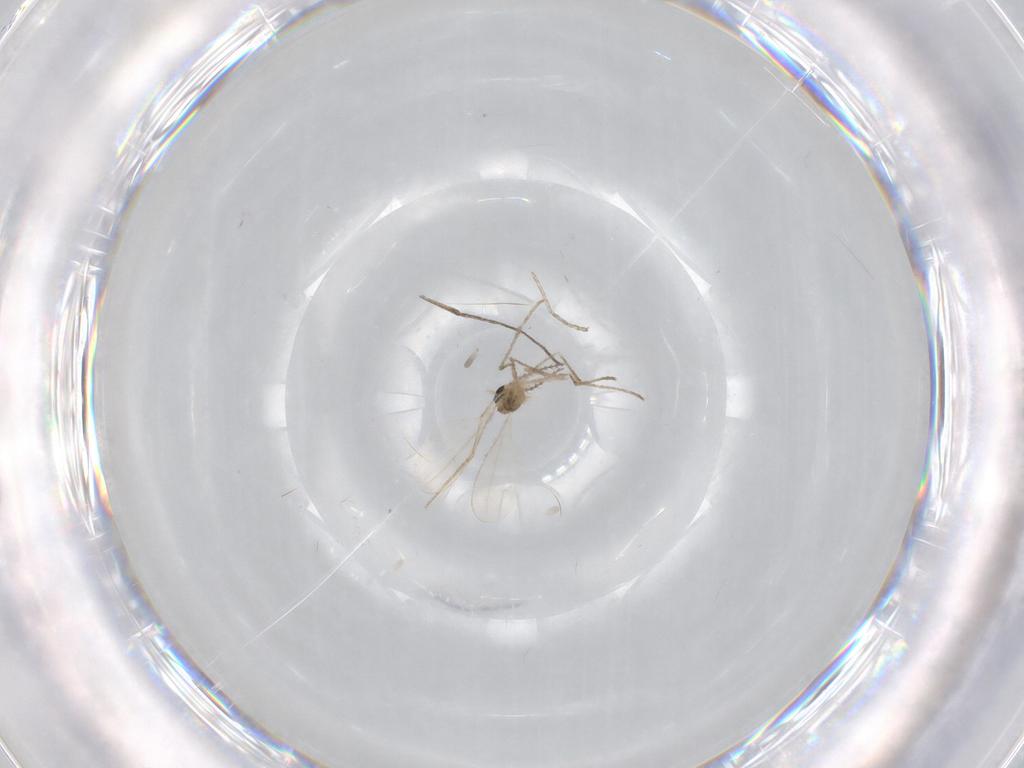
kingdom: Animalia
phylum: Arthropoda
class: Insecta
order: Diptera
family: Cecidomyiidae
